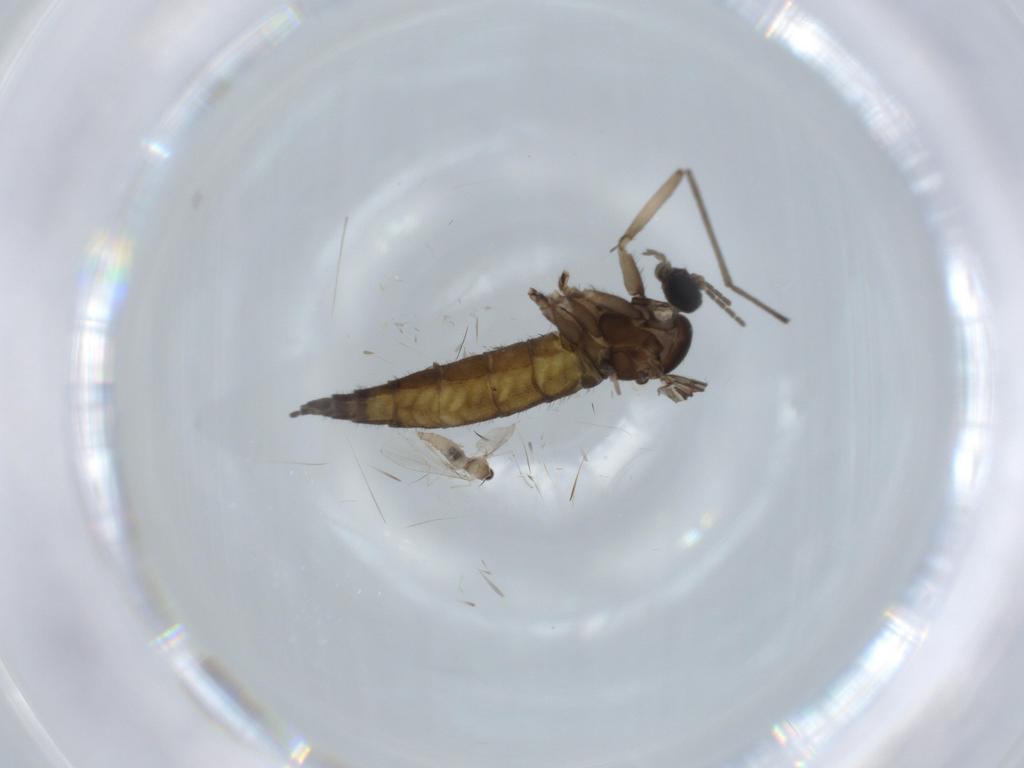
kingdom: Animalia
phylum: Arthropoda
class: Insecta
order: Diptera
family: Sciaridae
